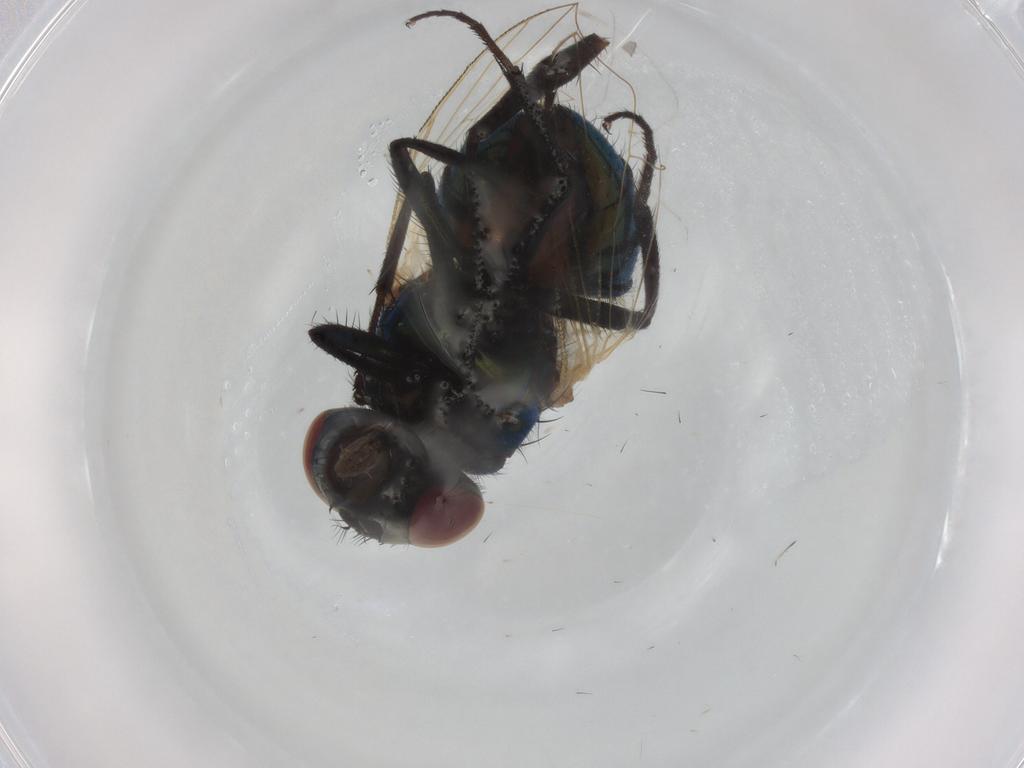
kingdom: Animalia
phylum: Arthropoda
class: Insecta
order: Diptera
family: Muscidae
